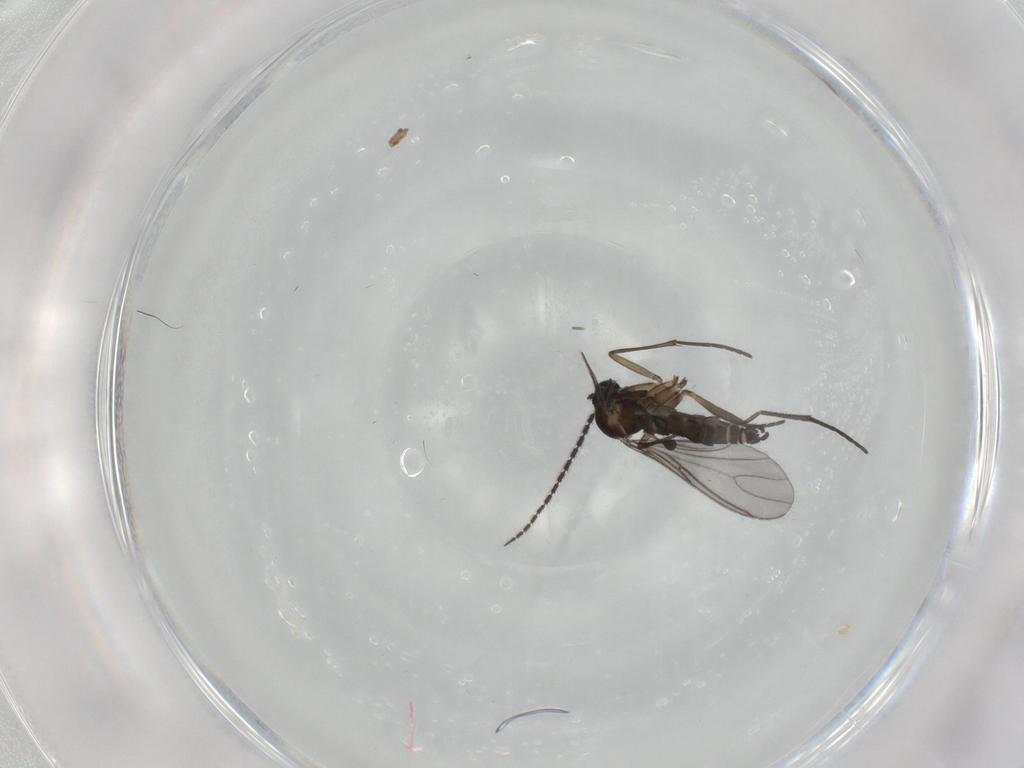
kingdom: Animalia
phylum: Arthropoda
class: Insecta
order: Diptera
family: Sciaridae
